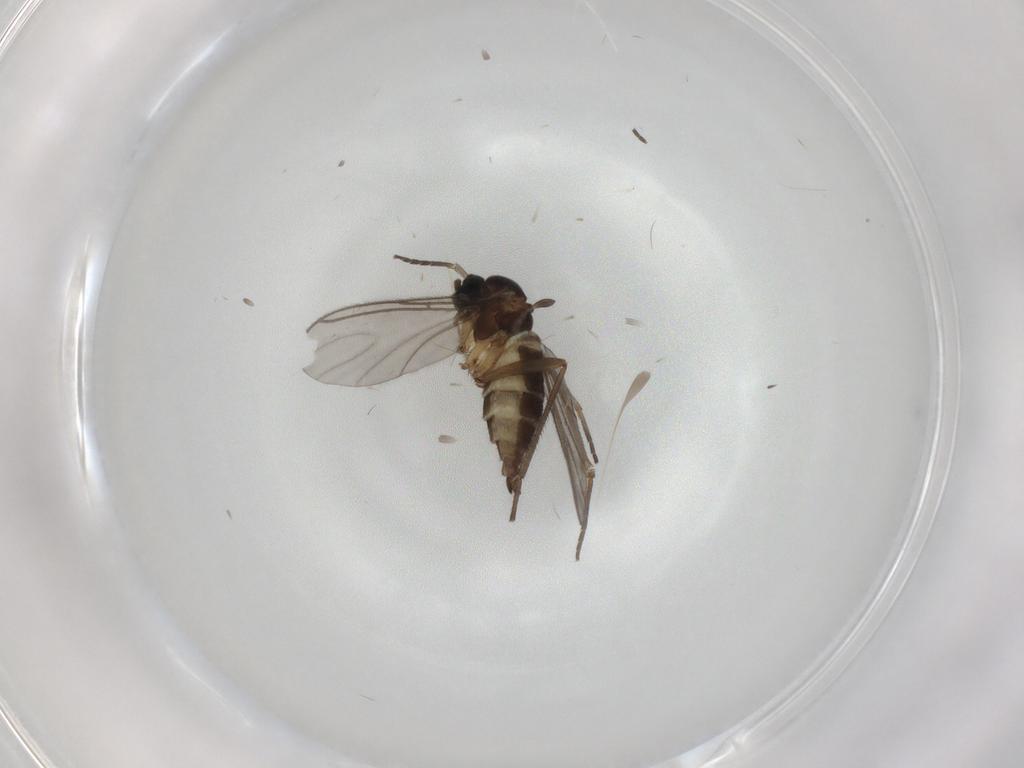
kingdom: Animalia
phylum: Arthropoda
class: Insecta
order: Diptera
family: Sciaridae
